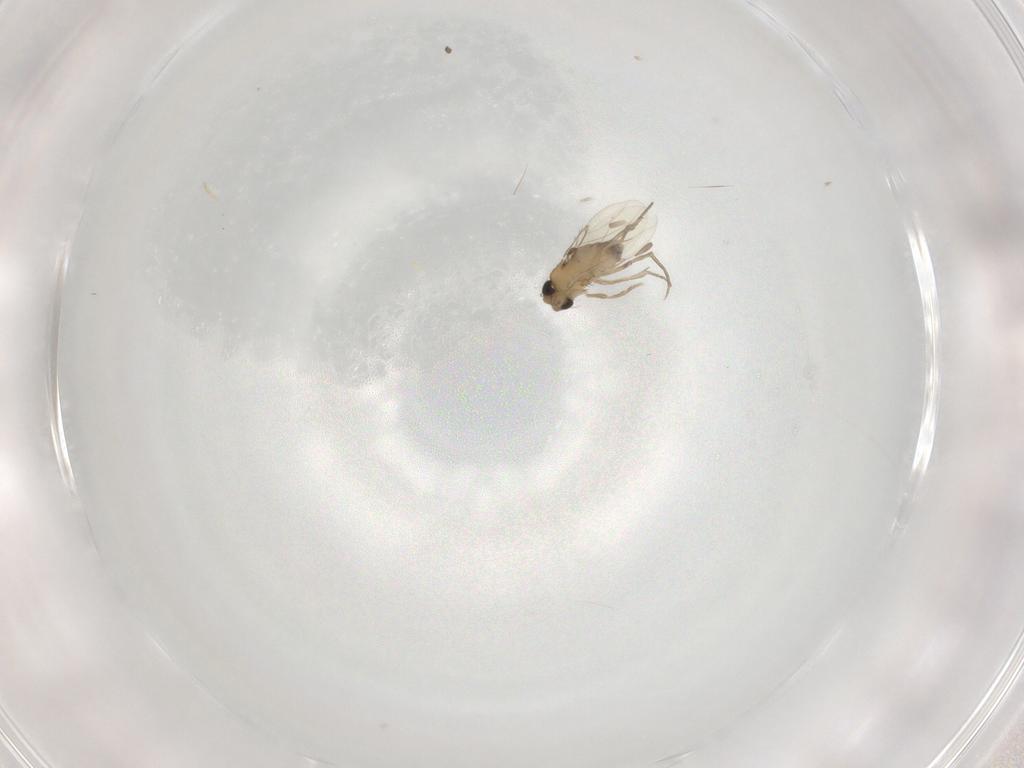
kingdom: Animalia
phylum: Arthropoda
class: Insecta
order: Diptera
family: Phoridae
